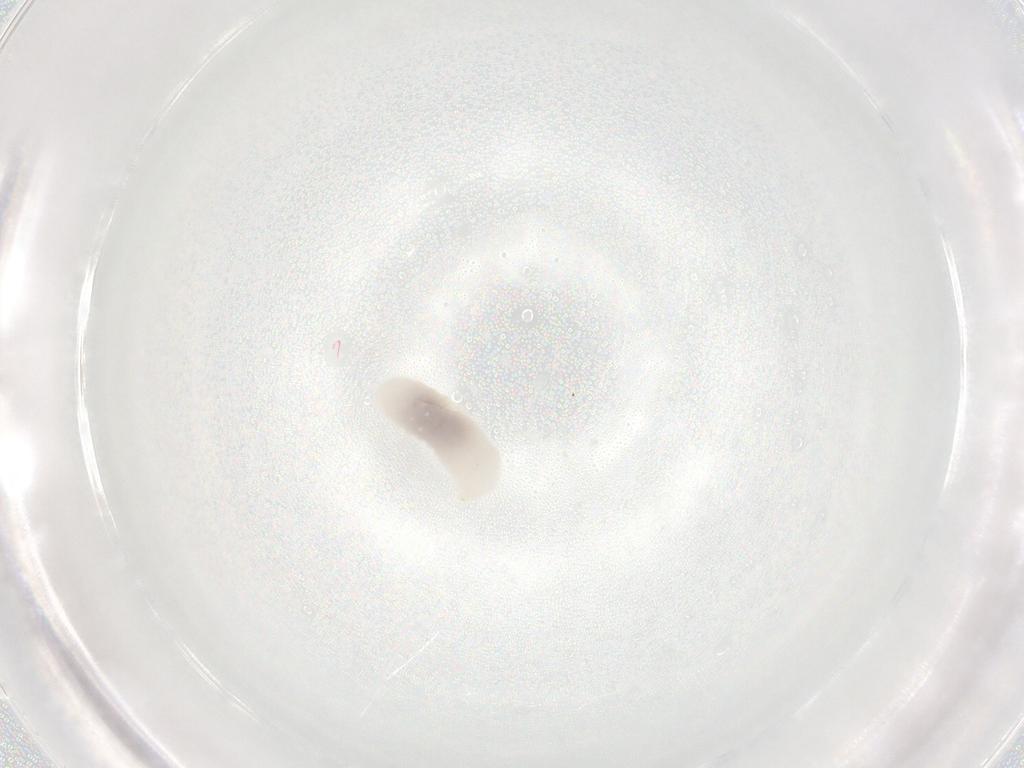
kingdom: Animalia
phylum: Arthropoda
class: Insecta
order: Hymenoptera
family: Formicidae
